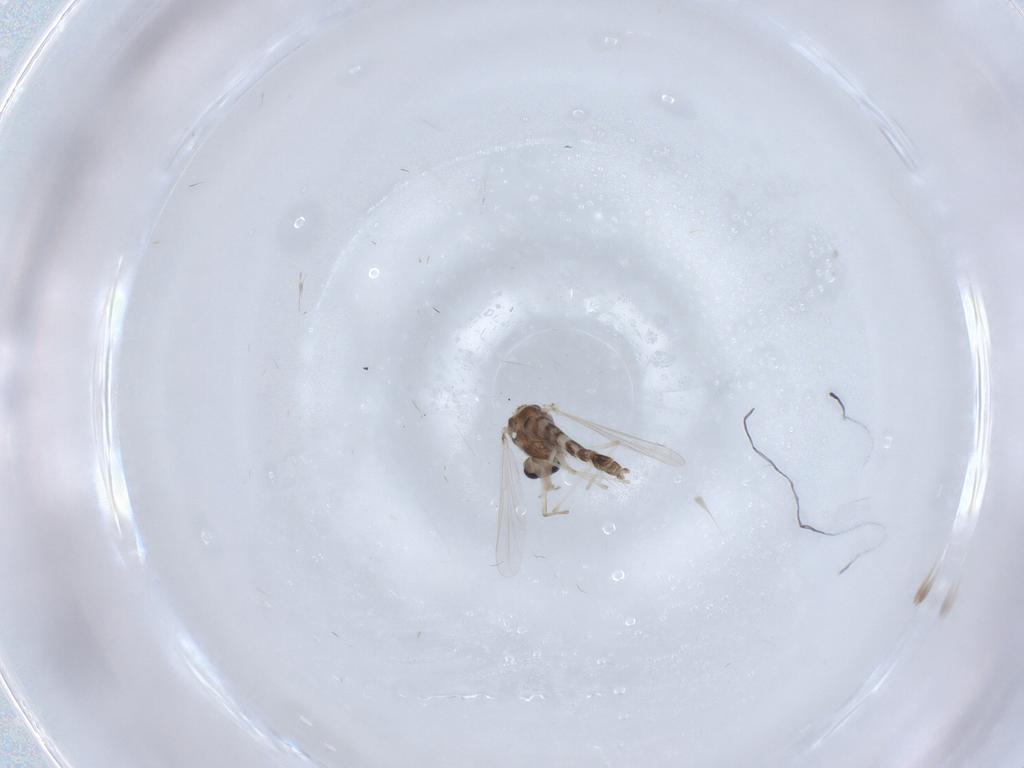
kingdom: Animalia
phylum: Arthropoda
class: Insecta
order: Diptera
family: Chironomidae
